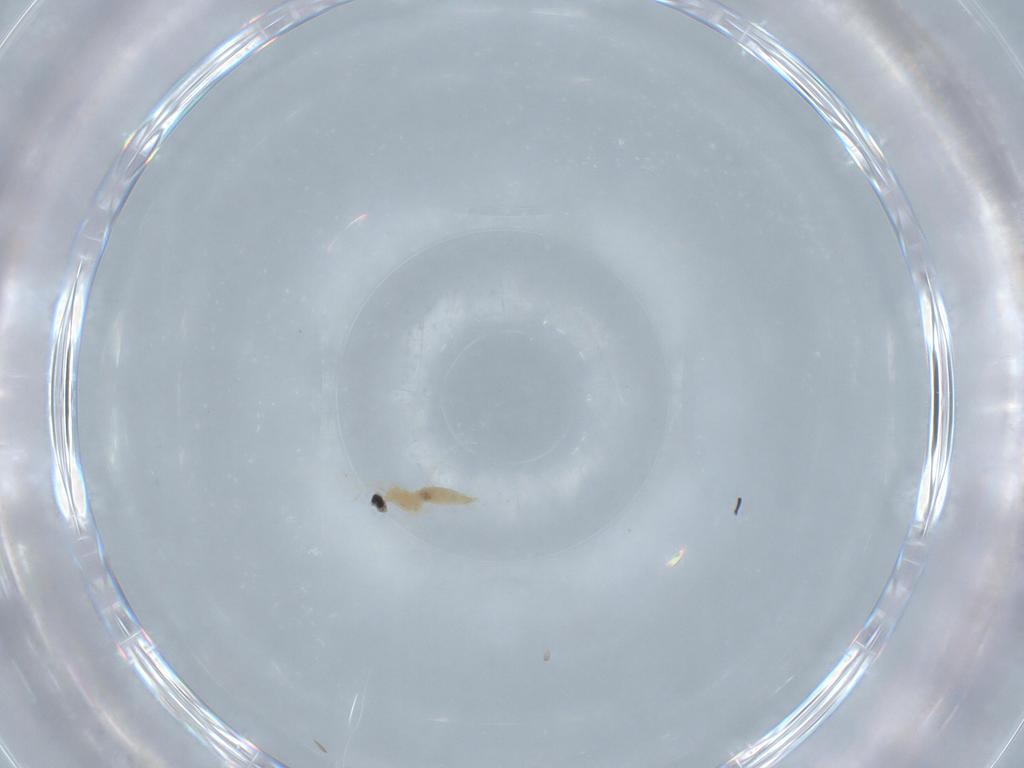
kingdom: Animalia
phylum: Arthropoda
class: Insecta
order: Diptera
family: Cecidomyiidae
